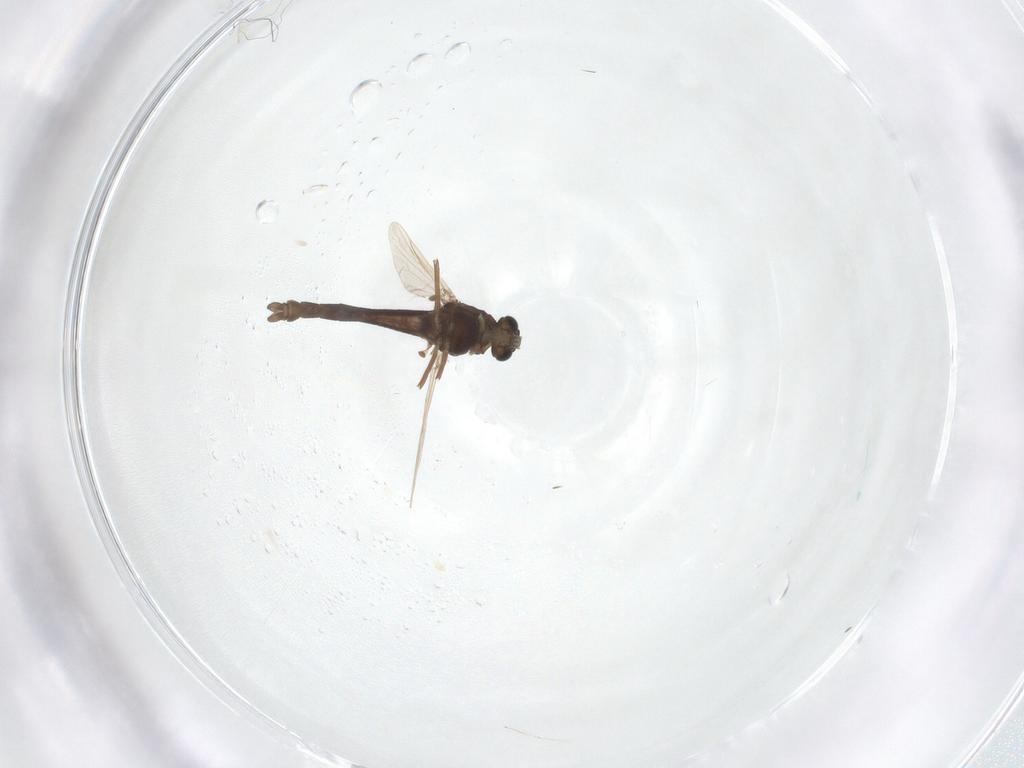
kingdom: Animalia
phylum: Arthropoda
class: Insecta
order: Diptera
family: Chironomidae
